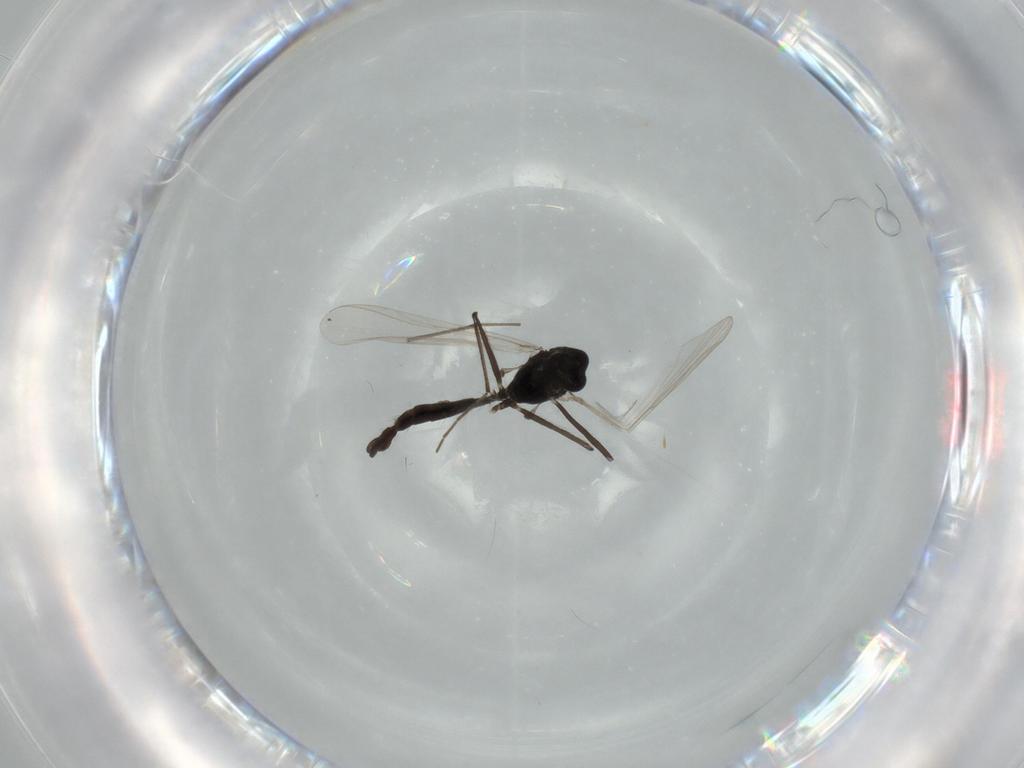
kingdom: Animalia
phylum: Arthropoda
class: Insecta
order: Diptera
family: Chironomidae
